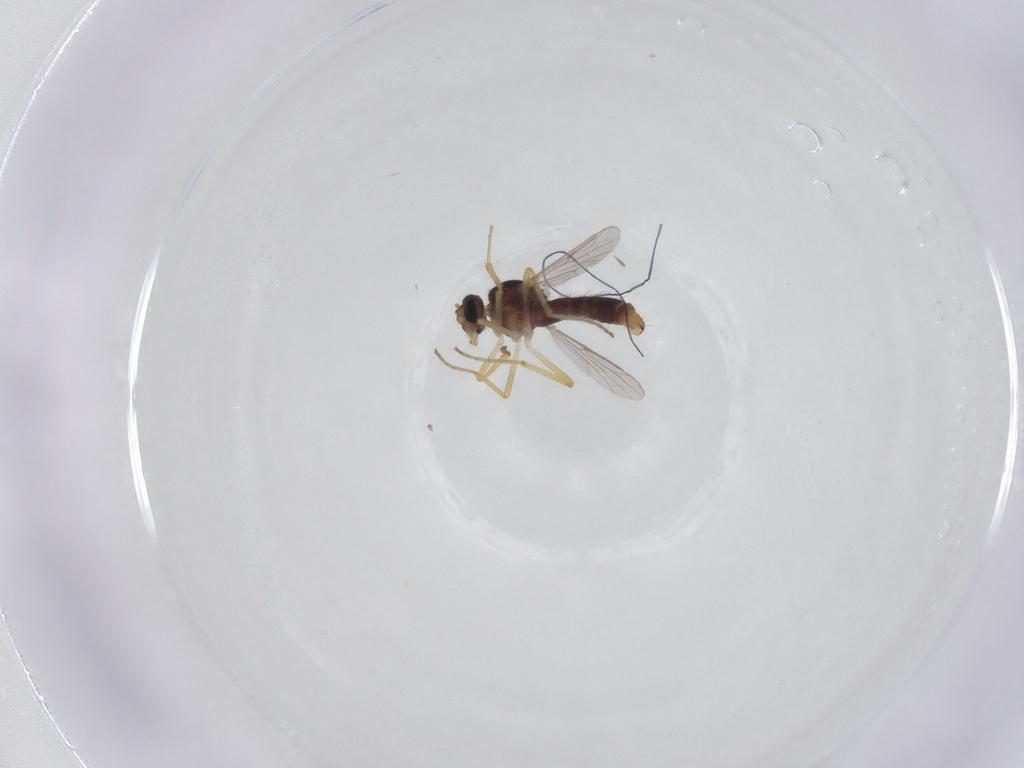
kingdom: Animalia
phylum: Arthropoda
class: Insecta
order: Diptera
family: Ceratopogonidae
